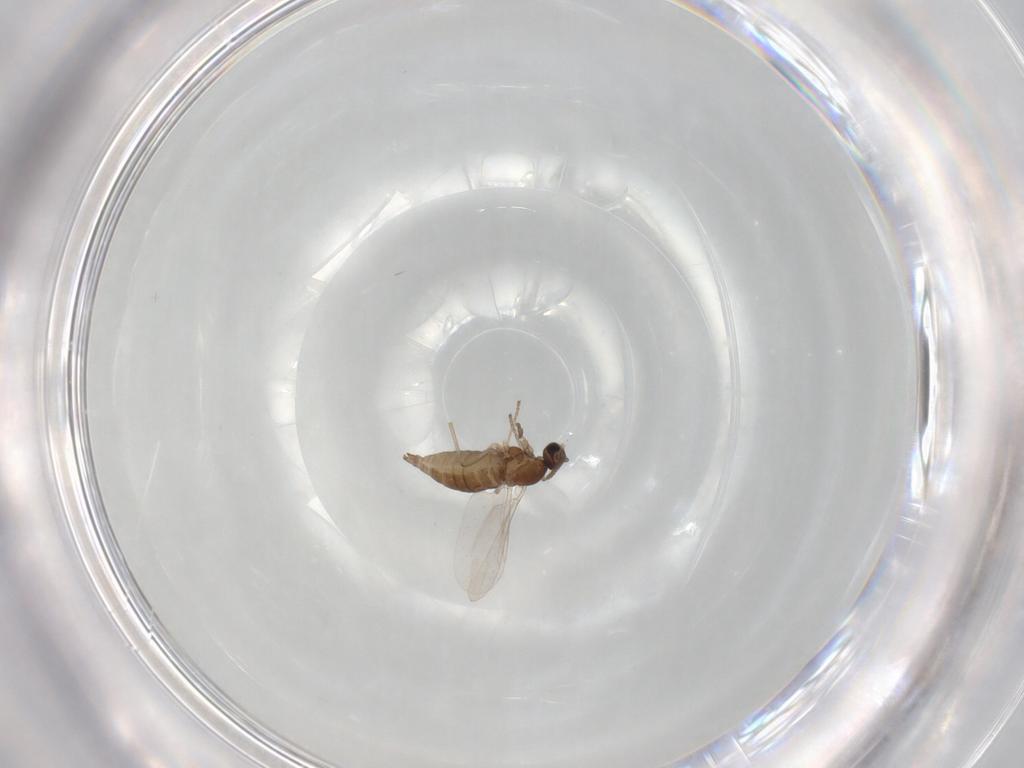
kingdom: Animalia
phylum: Arthropoda
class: Insecta
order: Diptera
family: Cecidomyiidae
